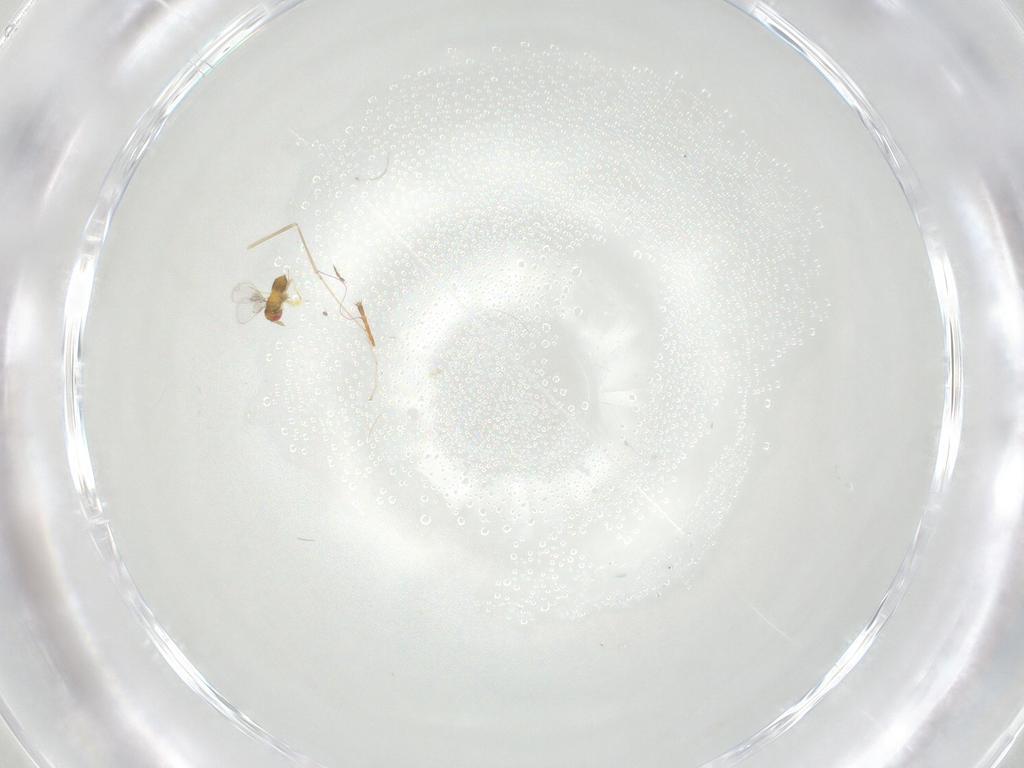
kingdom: Animalia
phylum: Arthropoda
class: Insecta
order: Hymenoptera
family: Trichogrammatidae
